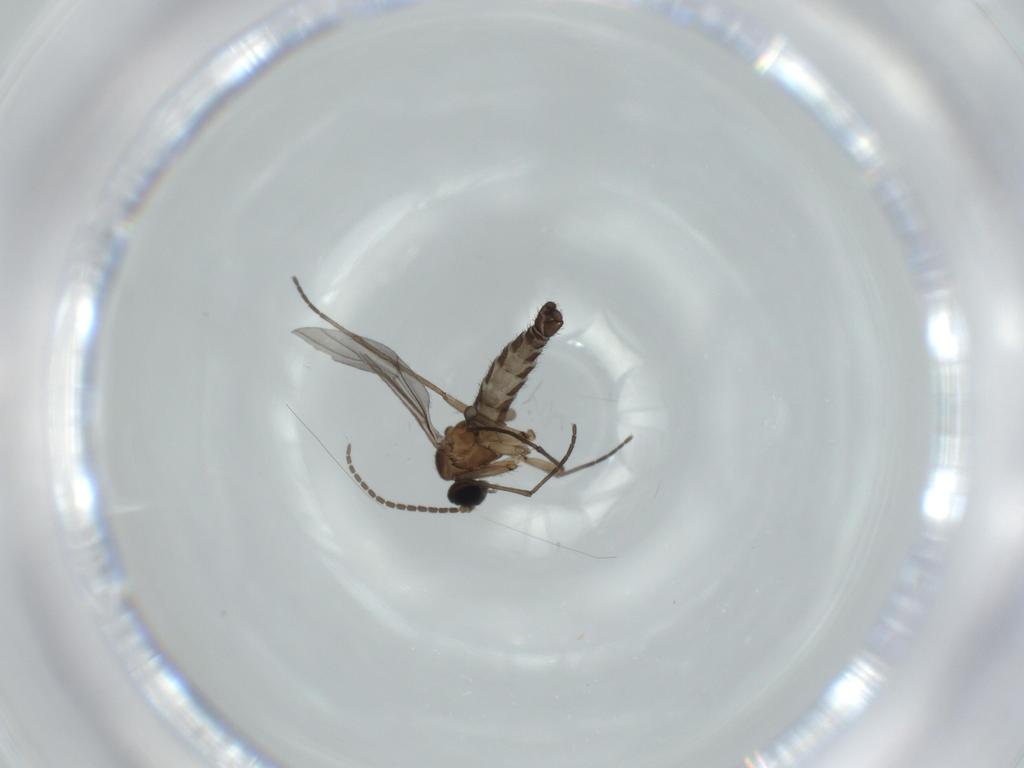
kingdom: Animalia
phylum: Arthropoda
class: Insecta
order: Diptera
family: Sciaridae
